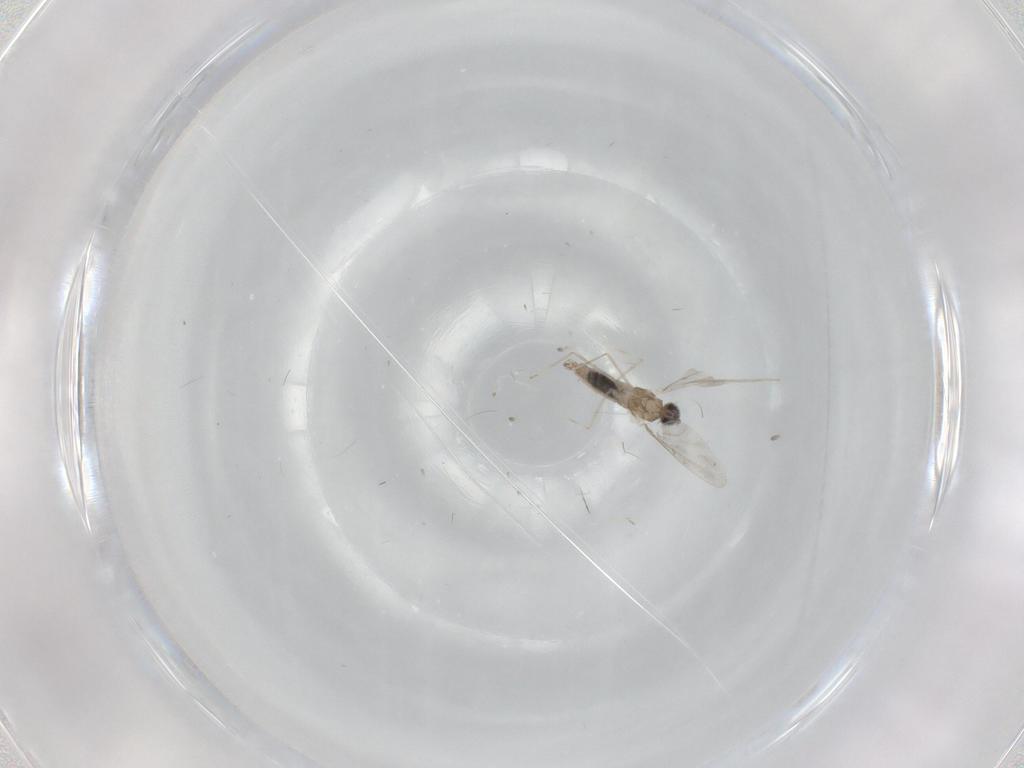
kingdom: Animalia
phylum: Arthropoda
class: Insecta
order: Diptera
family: Cecidomyiidae
